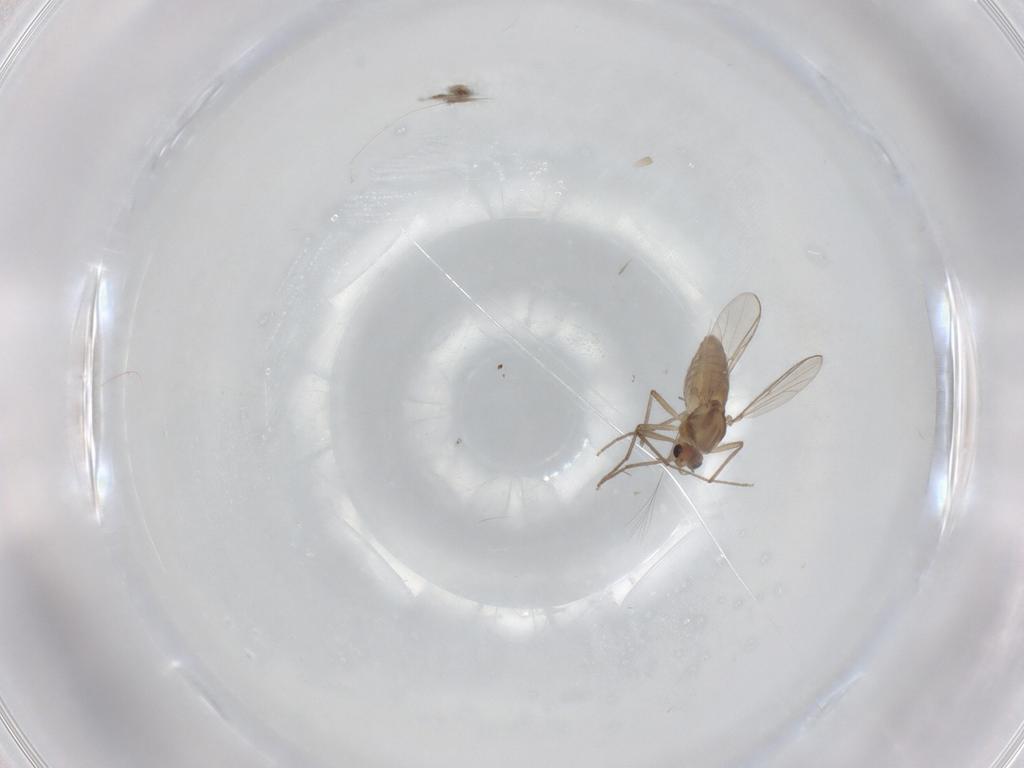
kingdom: Animalia
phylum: Arthropoda
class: Insecta
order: Diptera
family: Chironomidae
